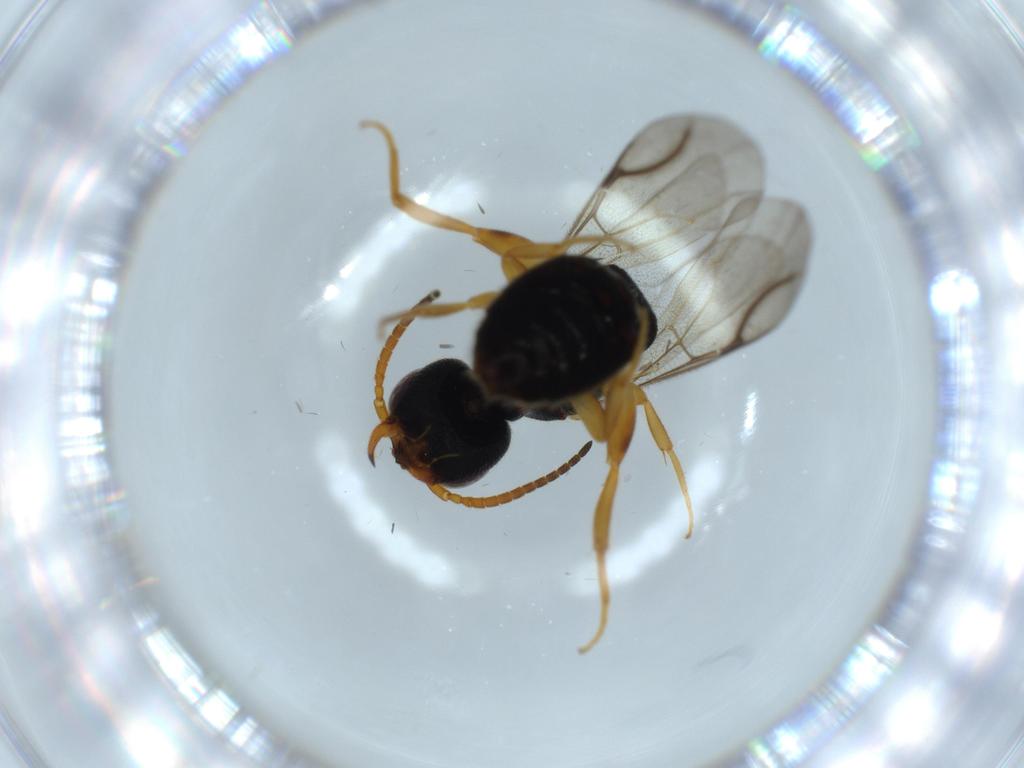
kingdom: Animalia
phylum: Arthropoda
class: Insecta
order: Hymenoptera
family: Bethylidae
